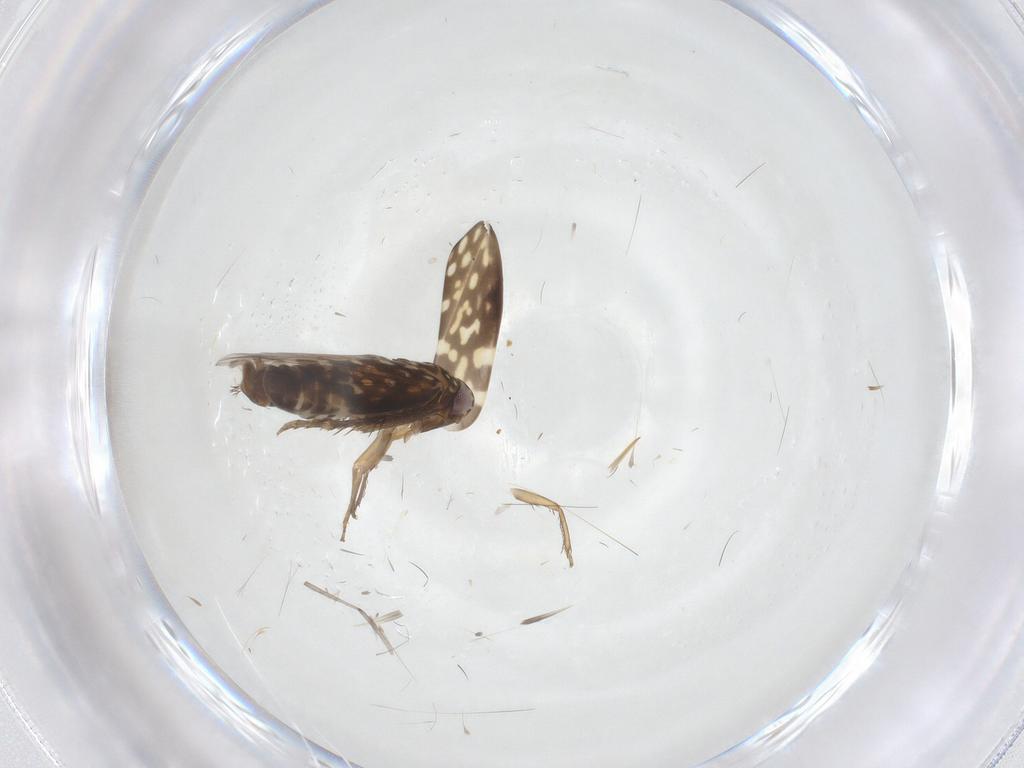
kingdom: Animalia
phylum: Arthropoda
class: Insecta
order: Hemiptera
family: Cicadellidae
